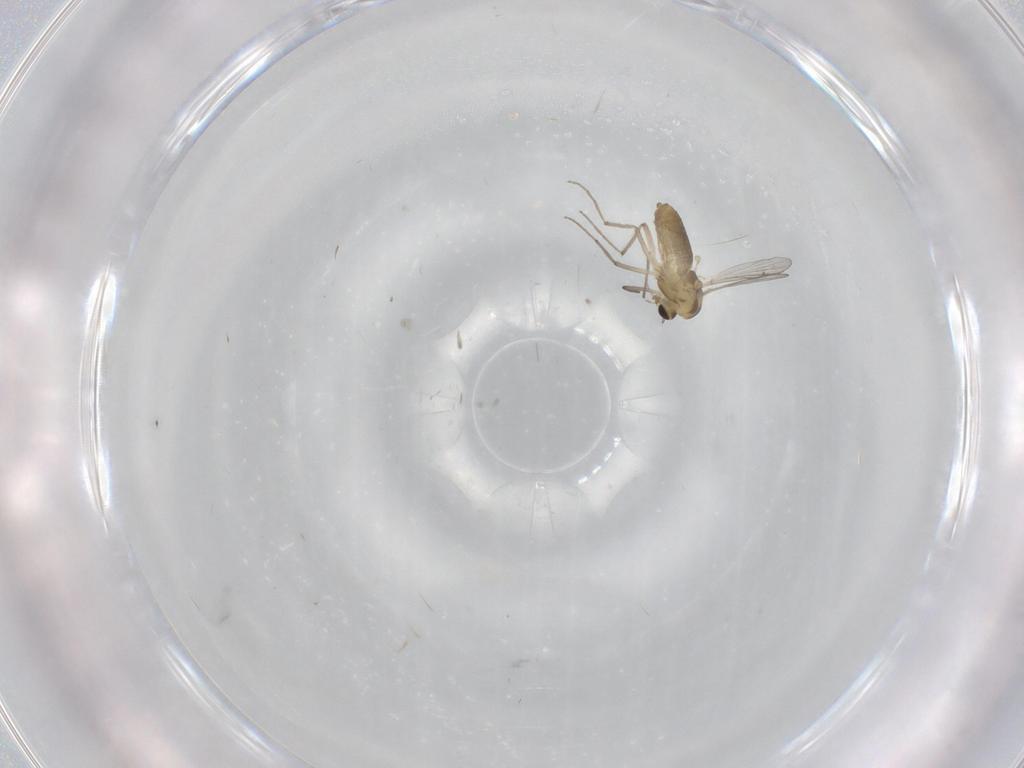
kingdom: Animalia
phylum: Arthropoda
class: Insecta
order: Diptera
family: Chironomidae
